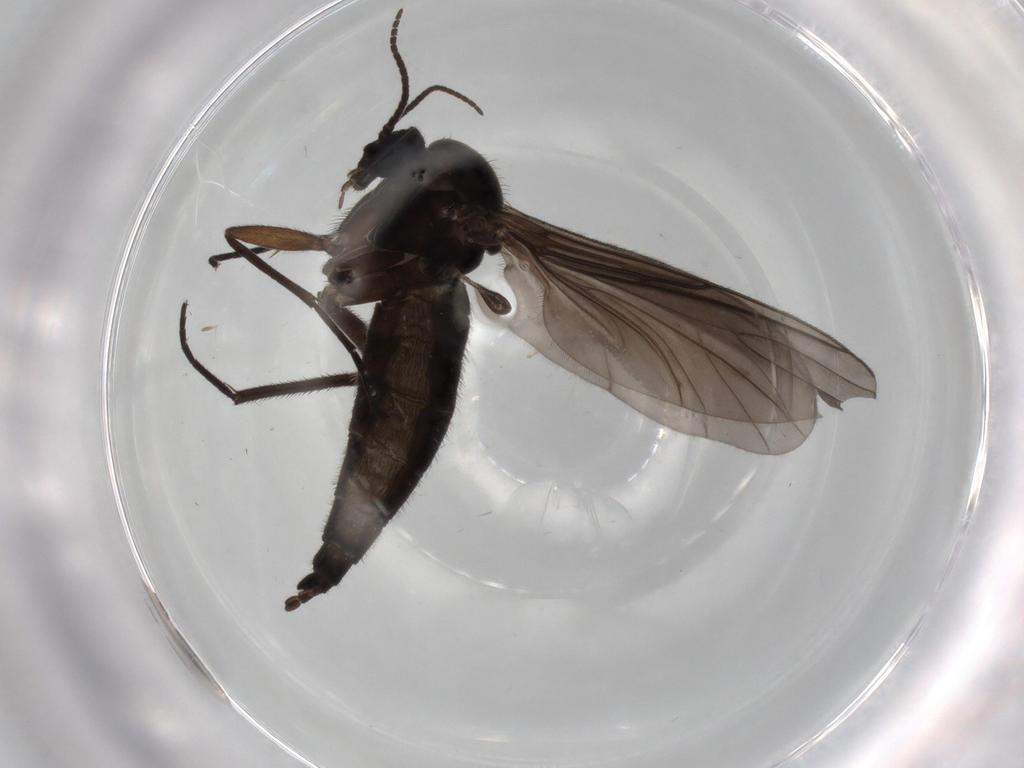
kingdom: Animalia
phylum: Arthropoda
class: Insecta
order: Diptera
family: Sciaridae
